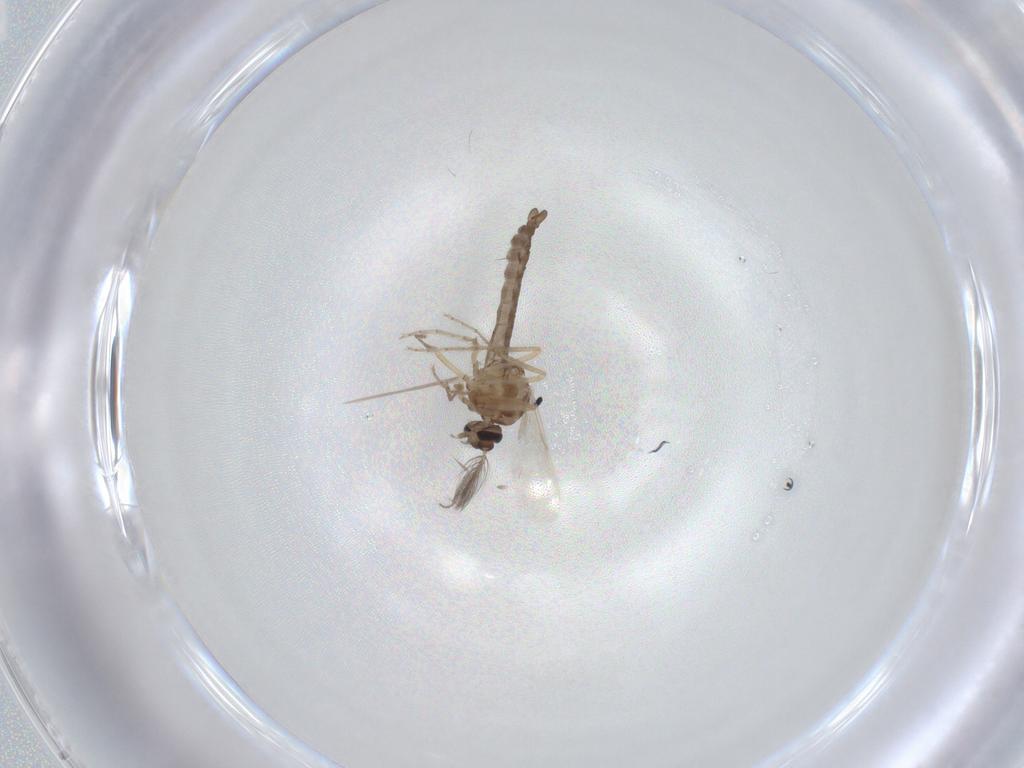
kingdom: Animalia
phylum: Arthropoda
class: Insecta
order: Diptera
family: Ceratopogonidae
